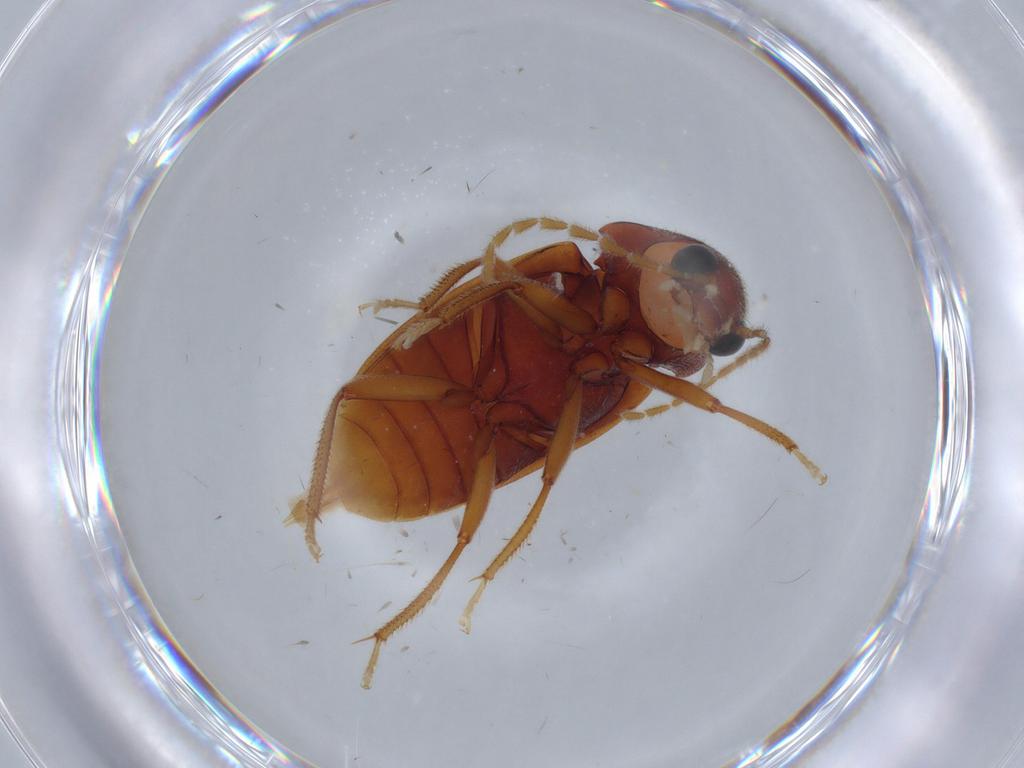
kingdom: Animalia
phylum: Arthropoda
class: Insecta
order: Coleoptera
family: Ptilodactylidae
